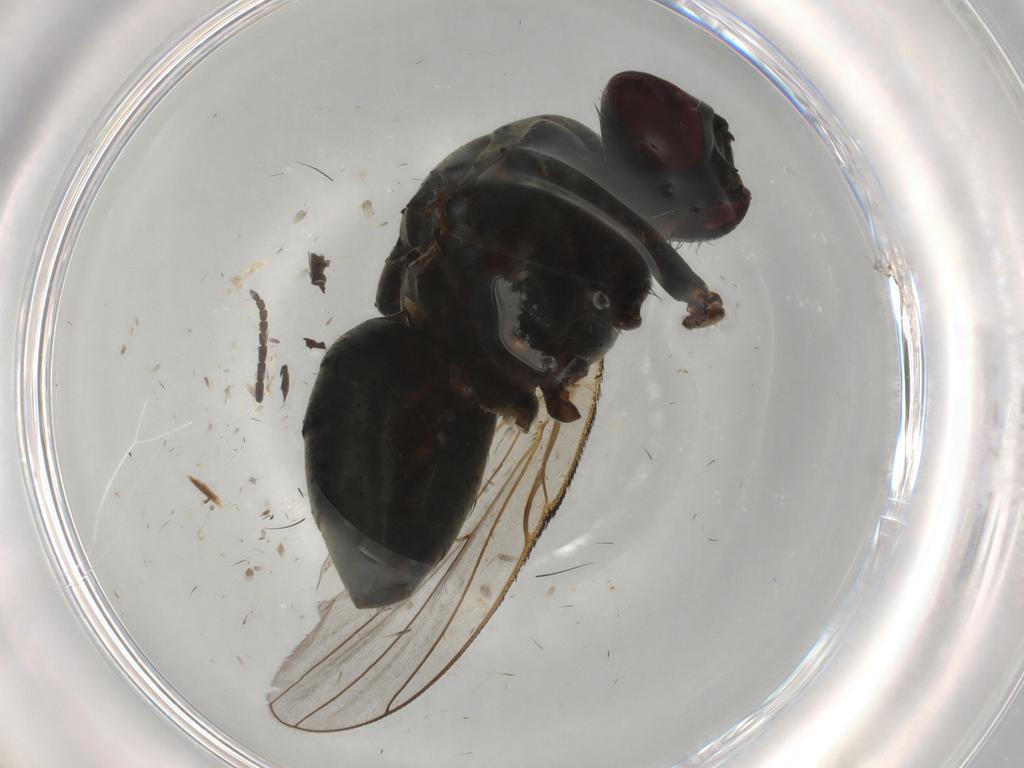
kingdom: Animalia
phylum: Arthropoda
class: Insecta
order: Diptera
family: Muscidae
